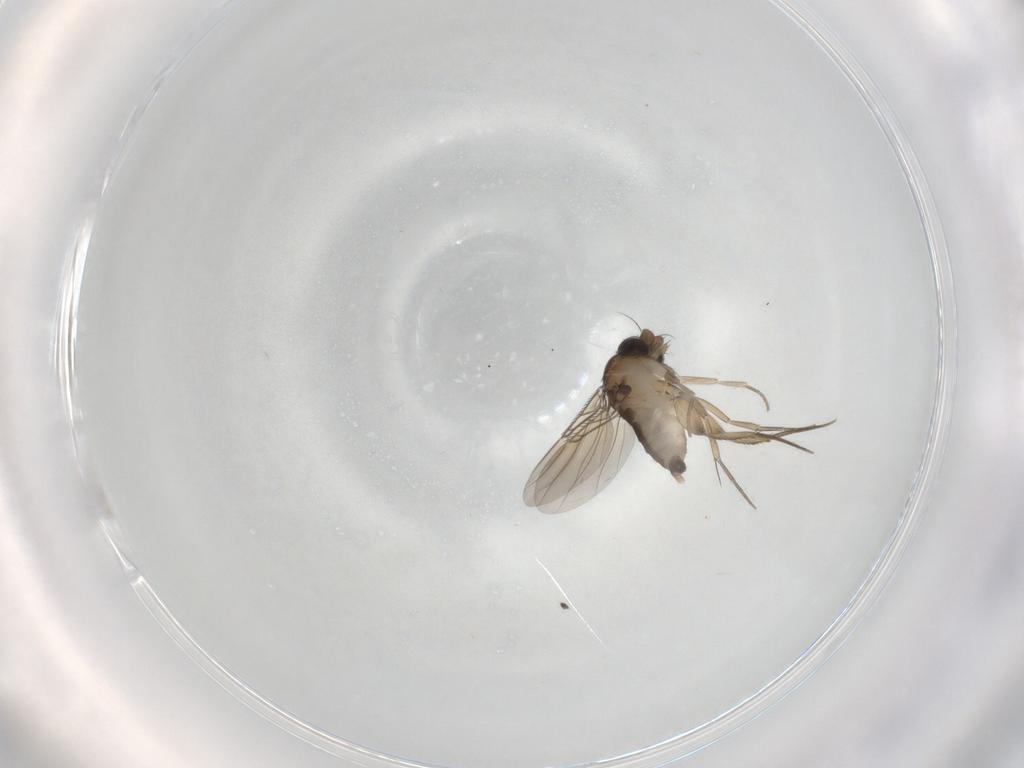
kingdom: Animalia
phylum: Arthropoda
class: Insecta
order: Diptera
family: Phoridae
